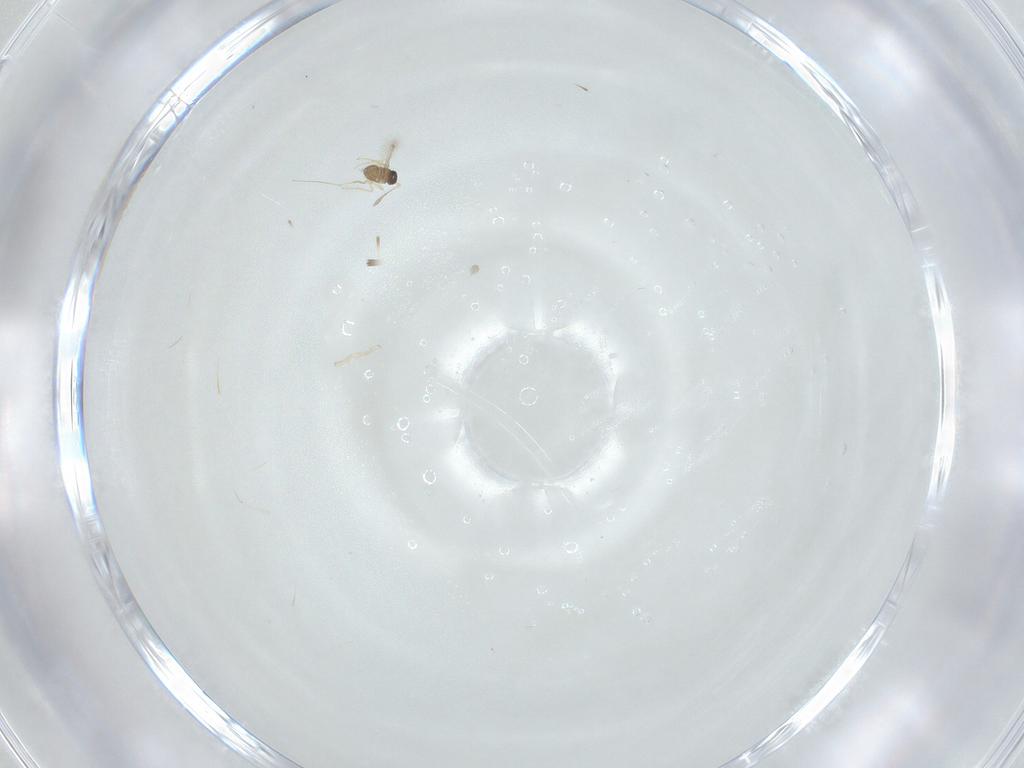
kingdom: Animalia
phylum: Arthropoda
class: Insecta
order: Hymenoptera
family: Mymaridae
